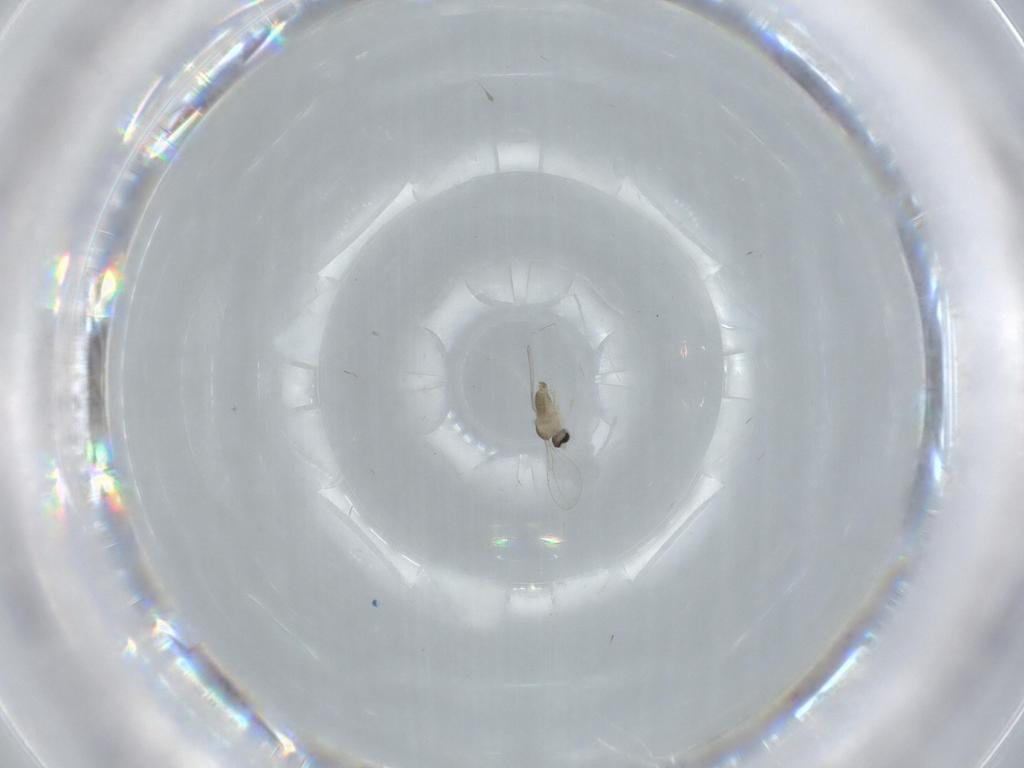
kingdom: Animalia
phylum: Arthropoda
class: Insecta
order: Diptera
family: Cecidomyiidae
